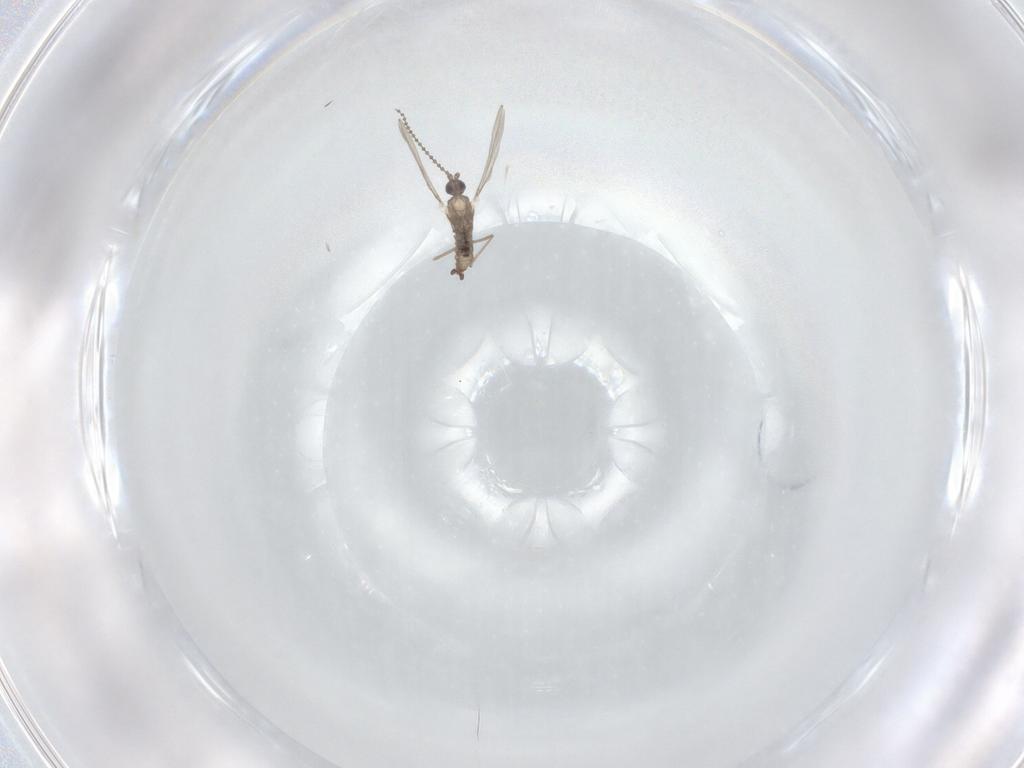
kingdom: Animalia
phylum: Arthropoda
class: Insecta
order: Diptera
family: Cecidomyiidae
